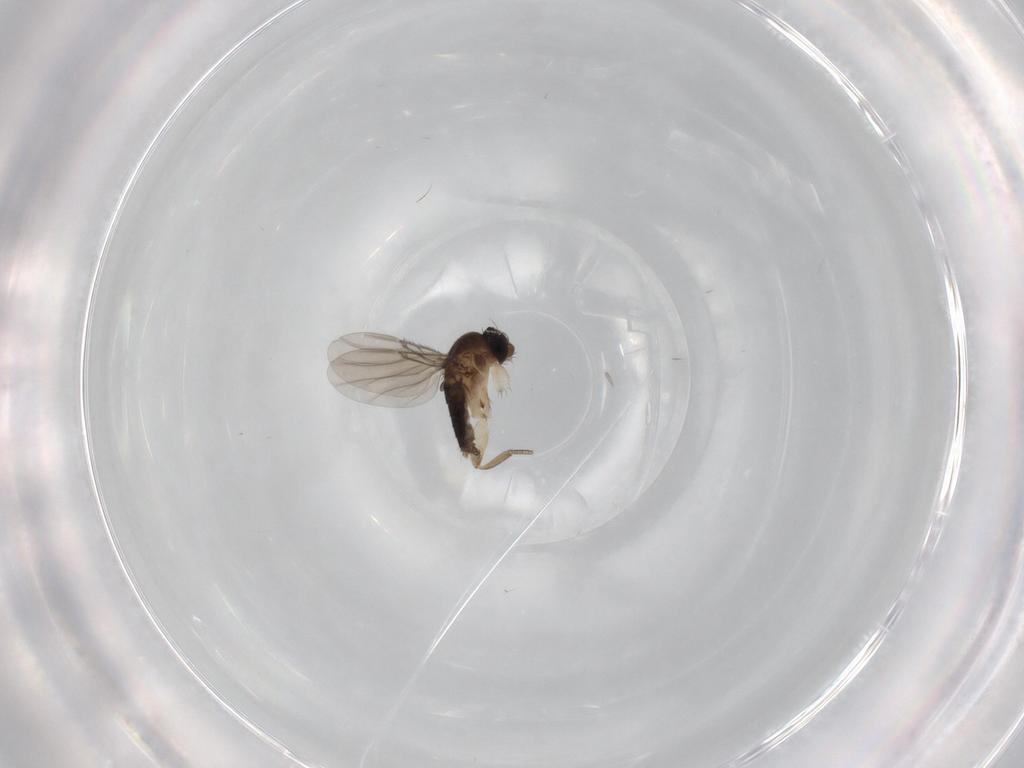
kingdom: Animalia
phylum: Arthropoda
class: Insecta
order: Diptera
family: Phoridae
